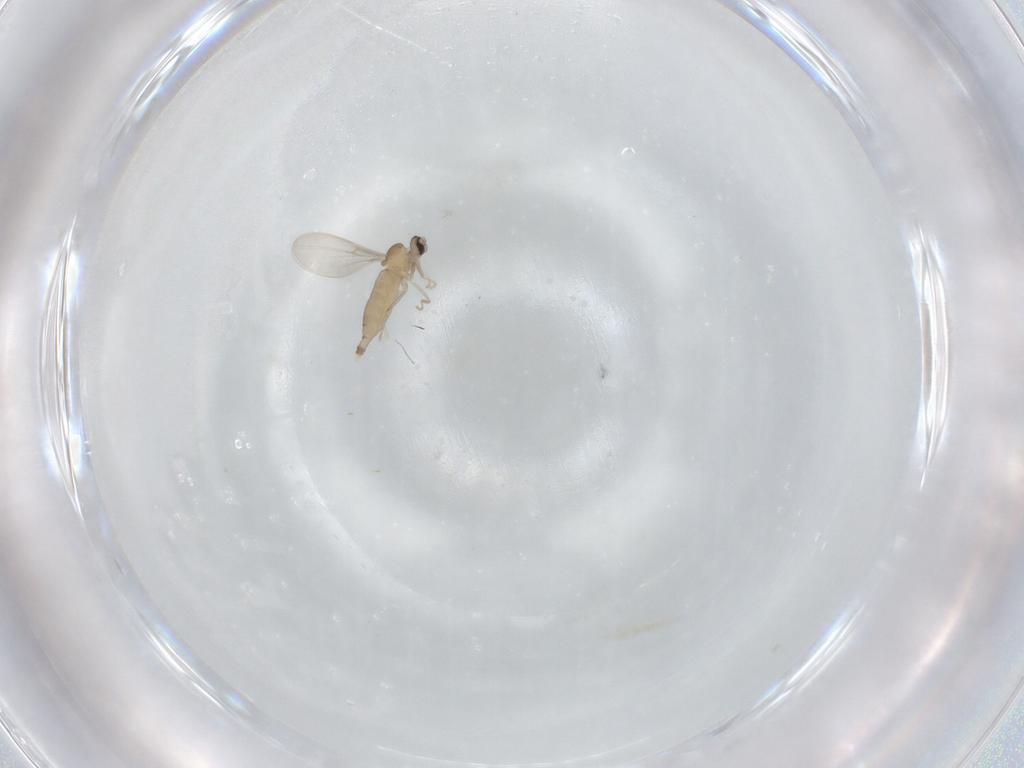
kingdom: Animalia
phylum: Arthropoda
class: Insecta
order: Diptera
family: Cecidomyiidae
